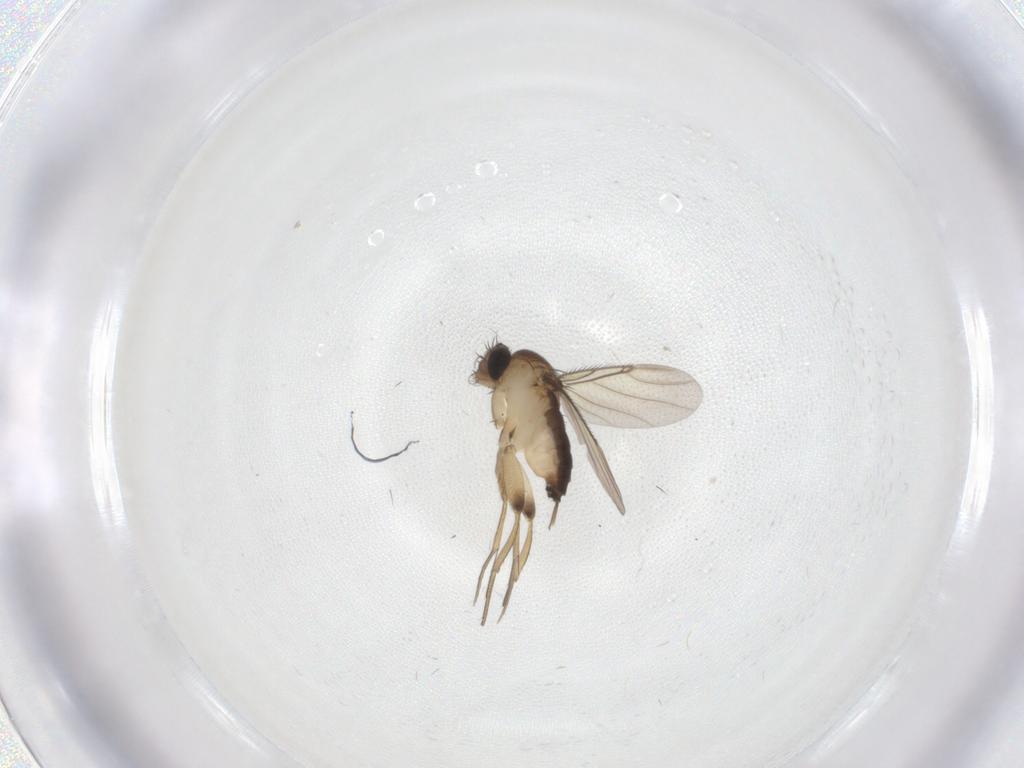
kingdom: Animalia
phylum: Arthropoda
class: Insecta
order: Diptera
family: Phoridae
